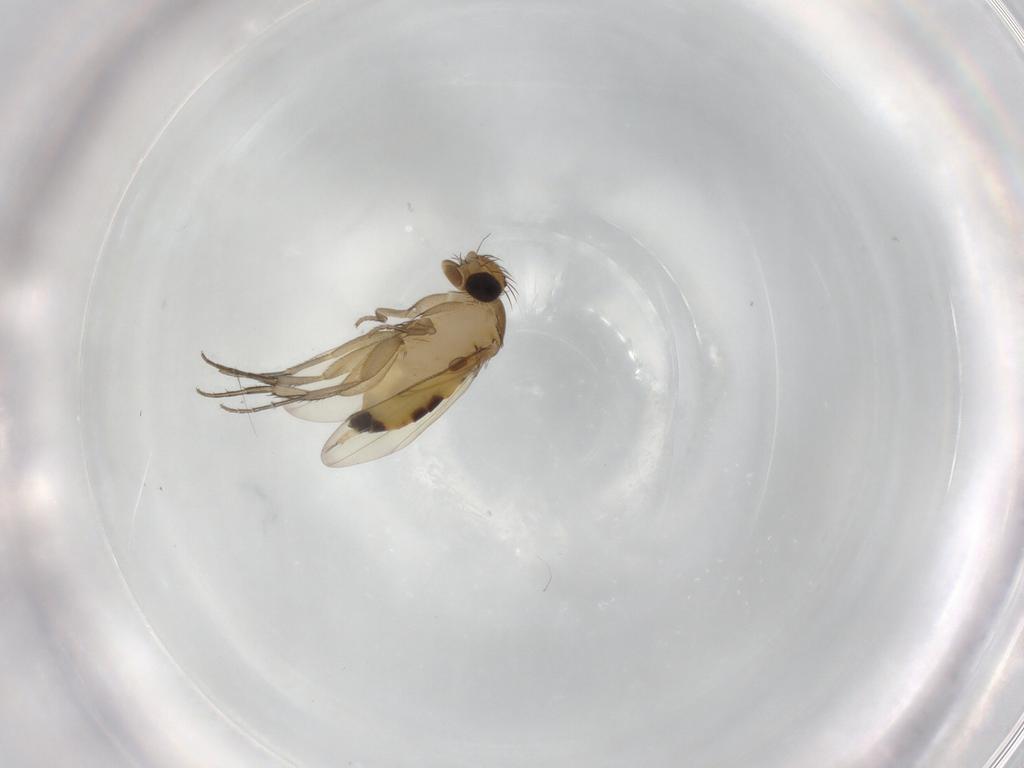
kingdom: Animalia
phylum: Arthropoda
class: Insecta
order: Diptera
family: Phoridae
